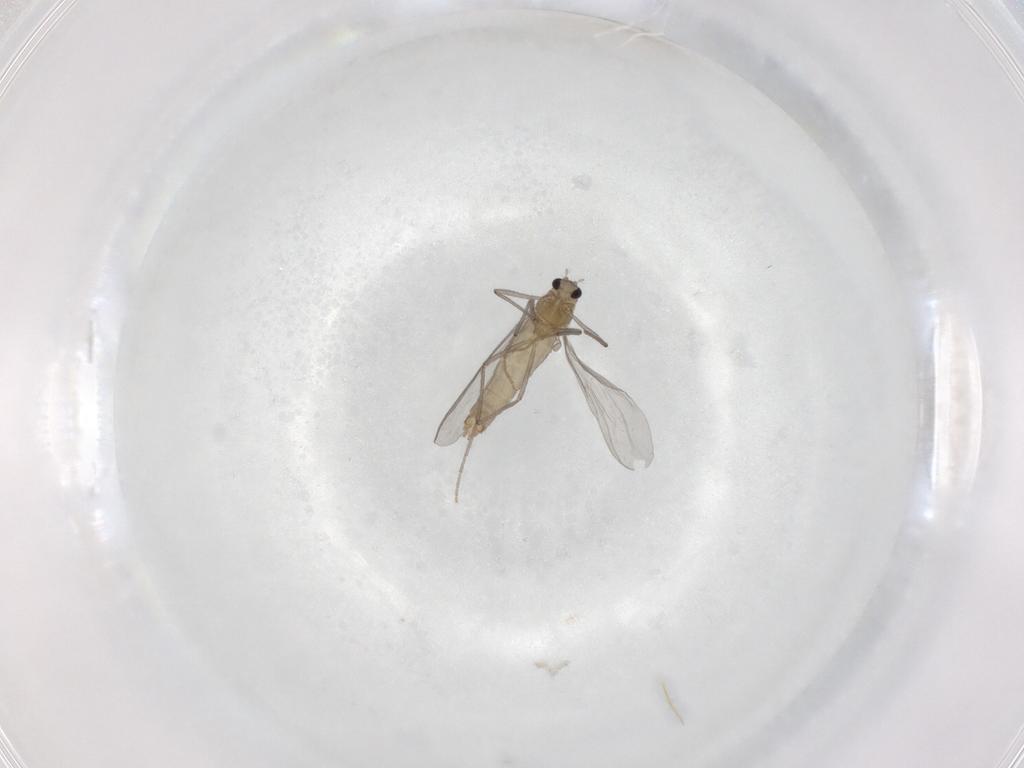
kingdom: Animalia
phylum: Arthropoda
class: Insecta
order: Diptera
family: Chironomidae
